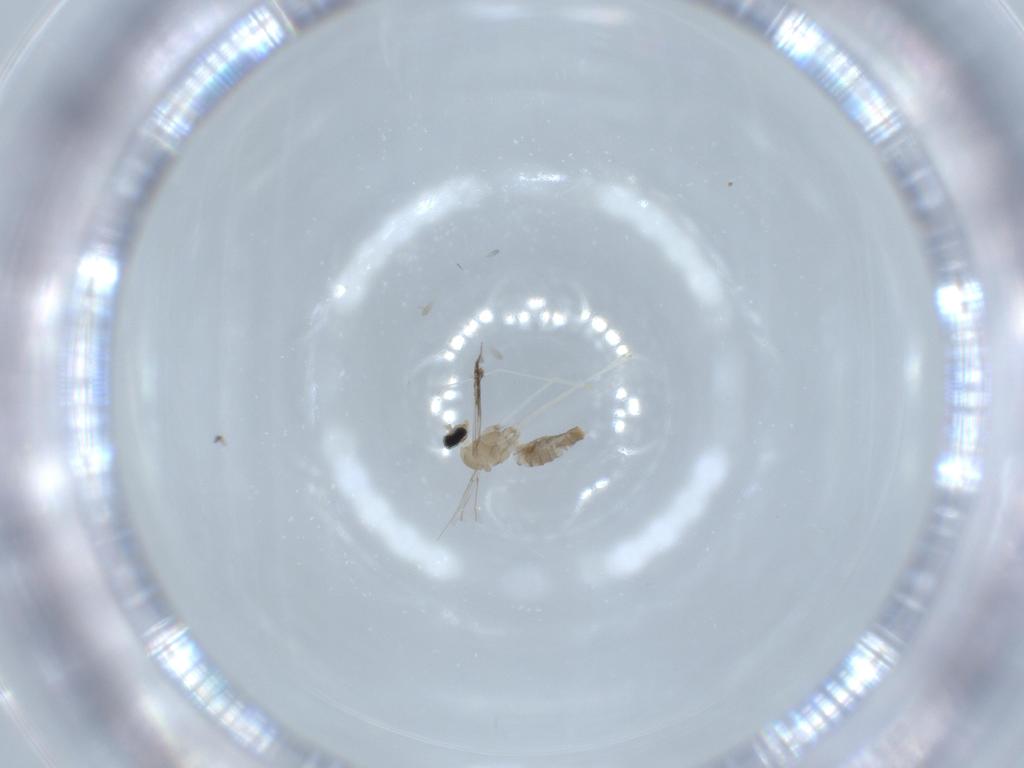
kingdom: Animalia
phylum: Arthropoda
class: Insecta
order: Diptera
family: Cecidomyiidae
